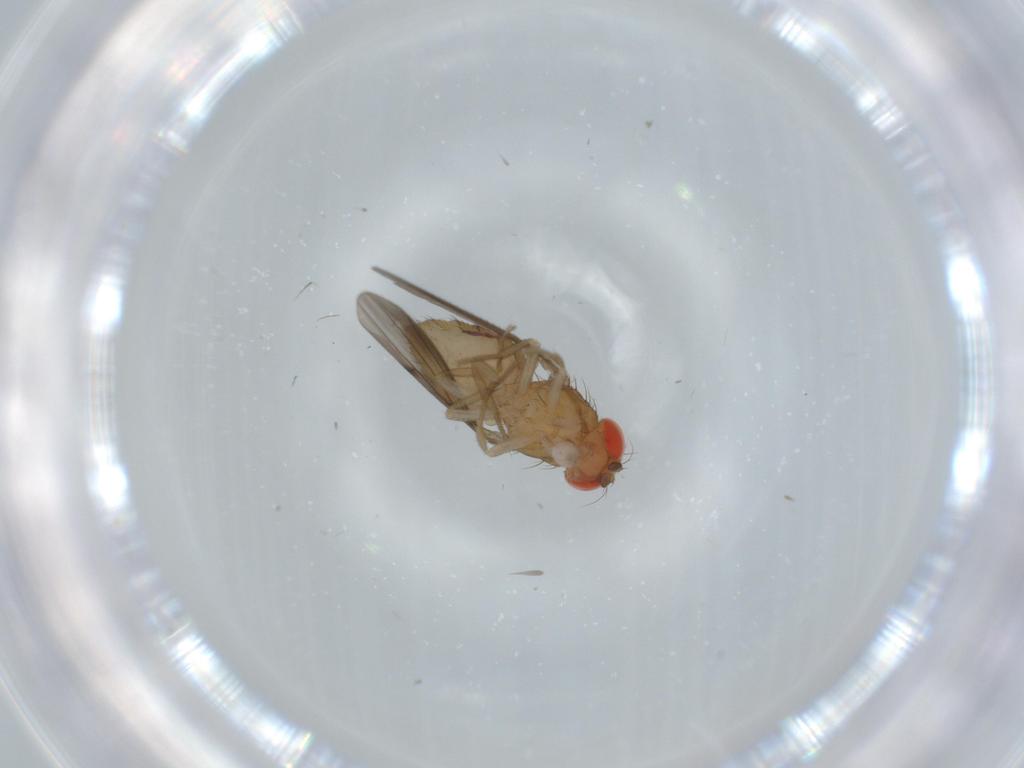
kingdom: Animalia
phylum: Arthropoda
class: Insecta
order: Diptera
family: Drosophilidae
